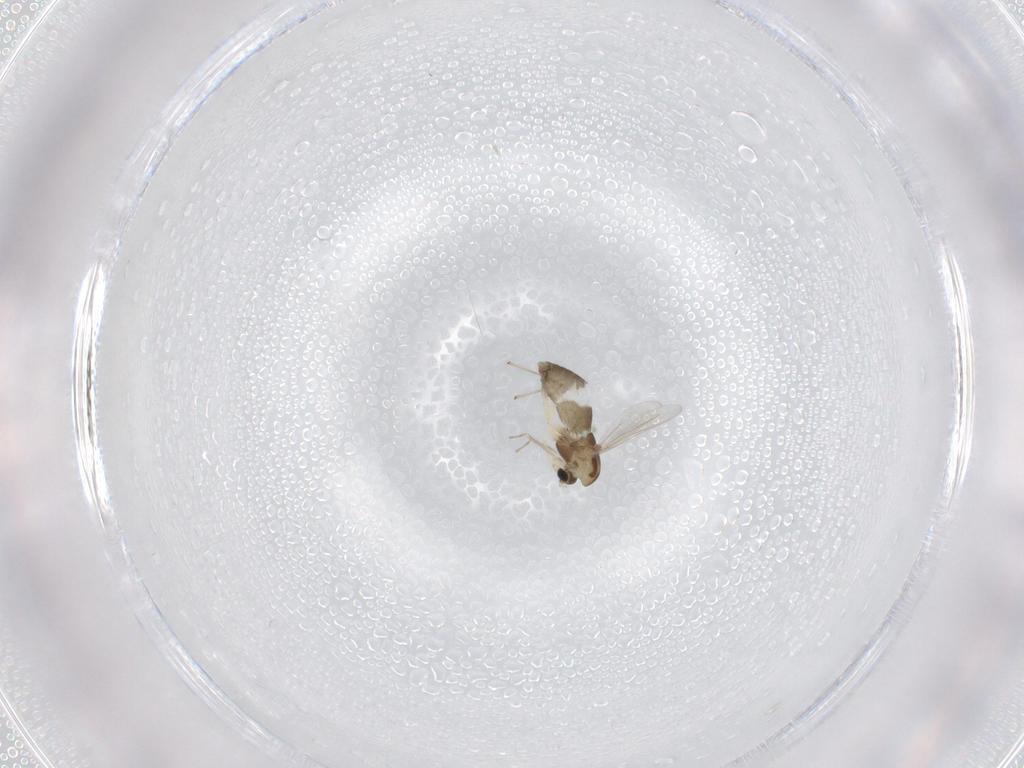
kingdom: Animalia
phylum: Arthropoda
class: Insecta
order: Diptera
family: Chironomidae
